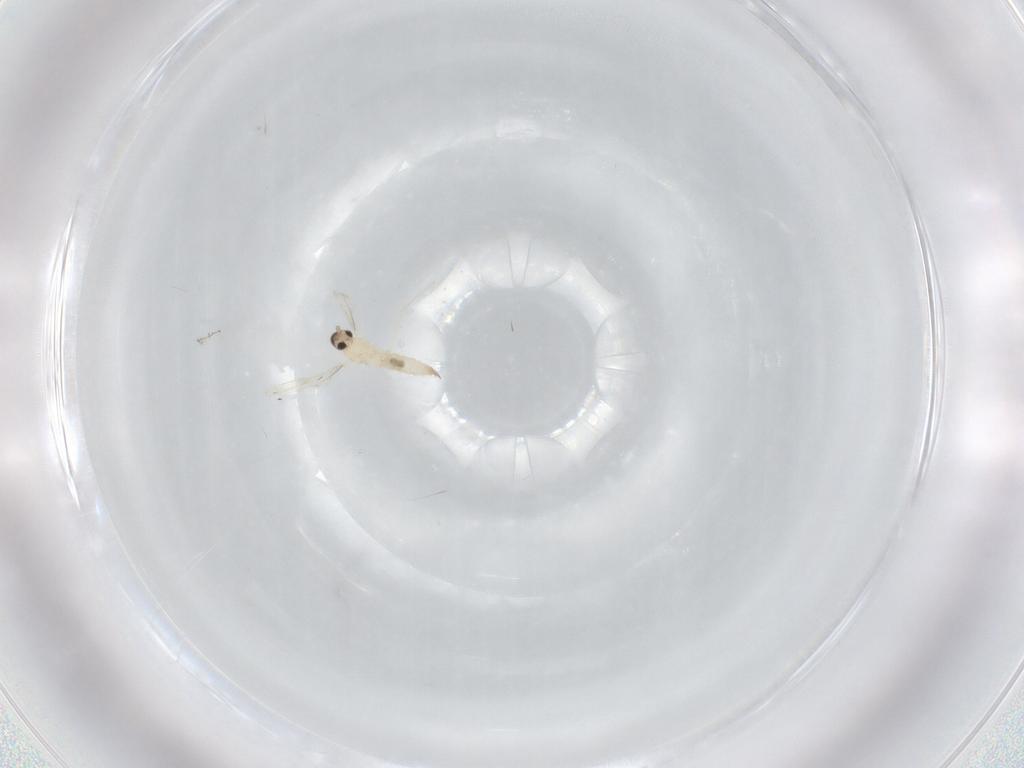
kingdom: Animalia
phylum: Arthropoda
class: Insecta
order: Diptera
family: Cecidomyiidae
